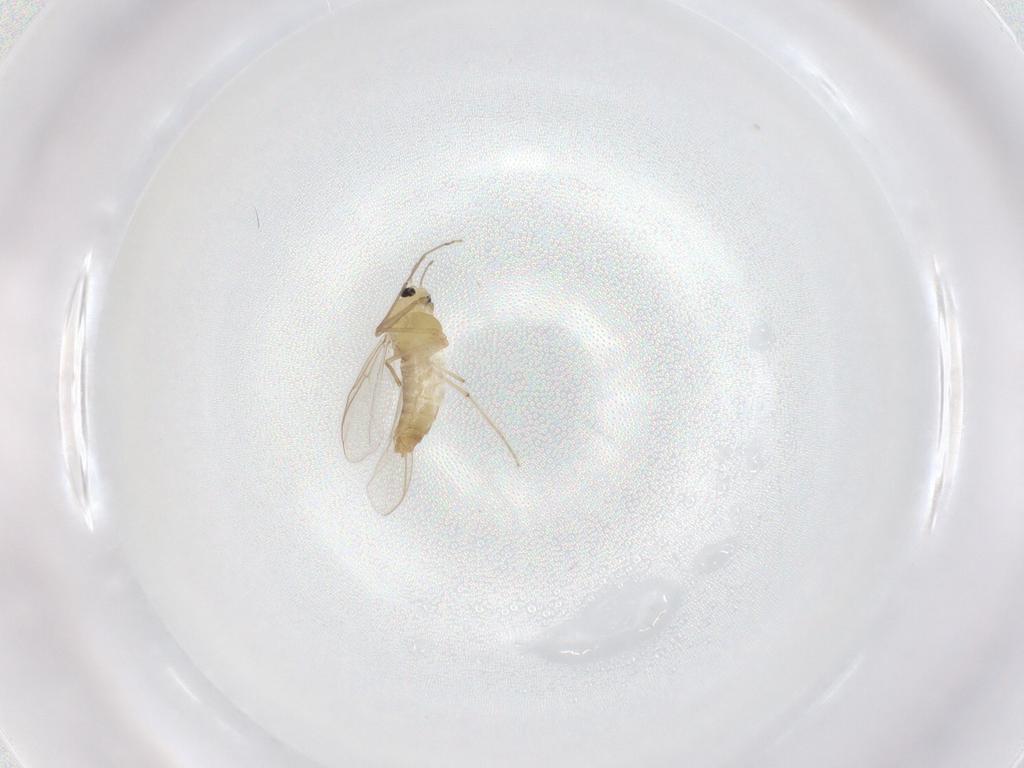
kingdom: Animalia
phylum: Arthropoda
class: Insecta
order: Diptera
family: Chironomidae
